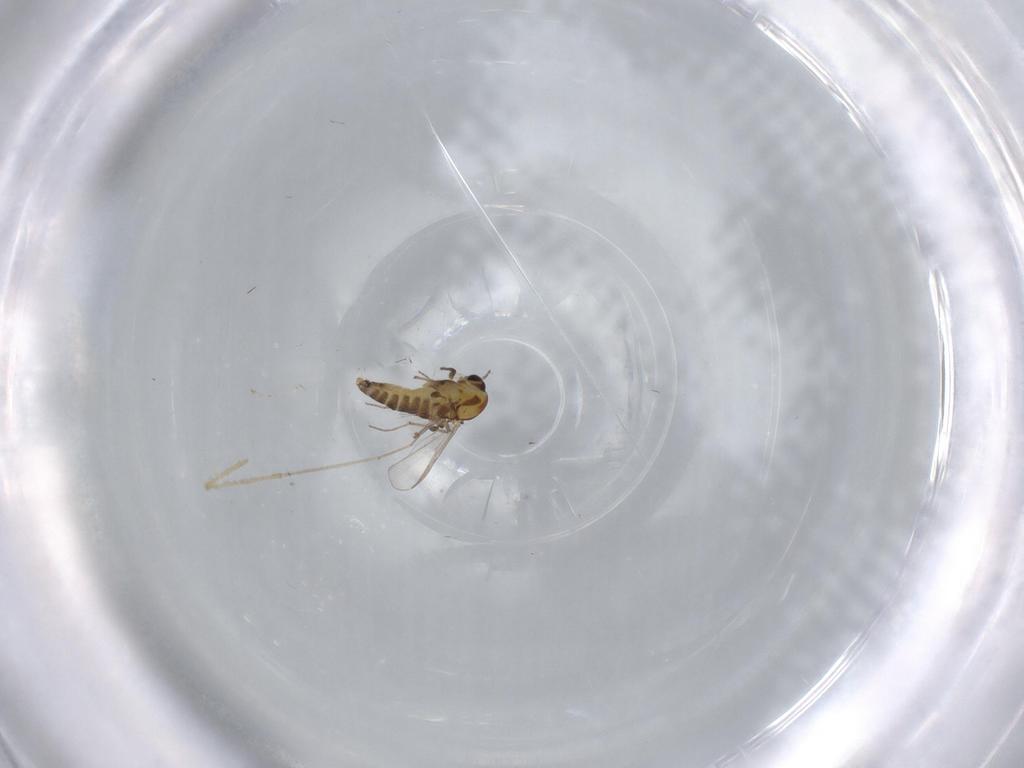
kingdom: Animalia
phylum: Arthropoda
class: Insecta
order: Diptera
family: Chironomidae
